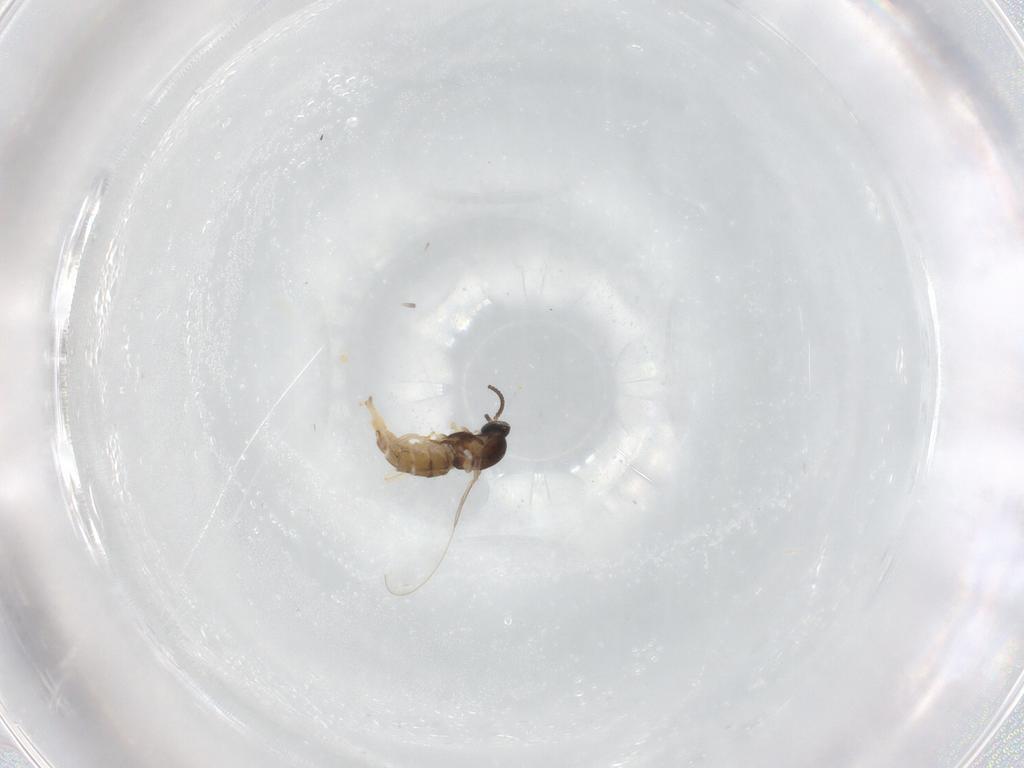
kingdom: Animalia
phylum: Arthropoda
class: Insecta
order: Diptera
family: Cecidomyiidae
